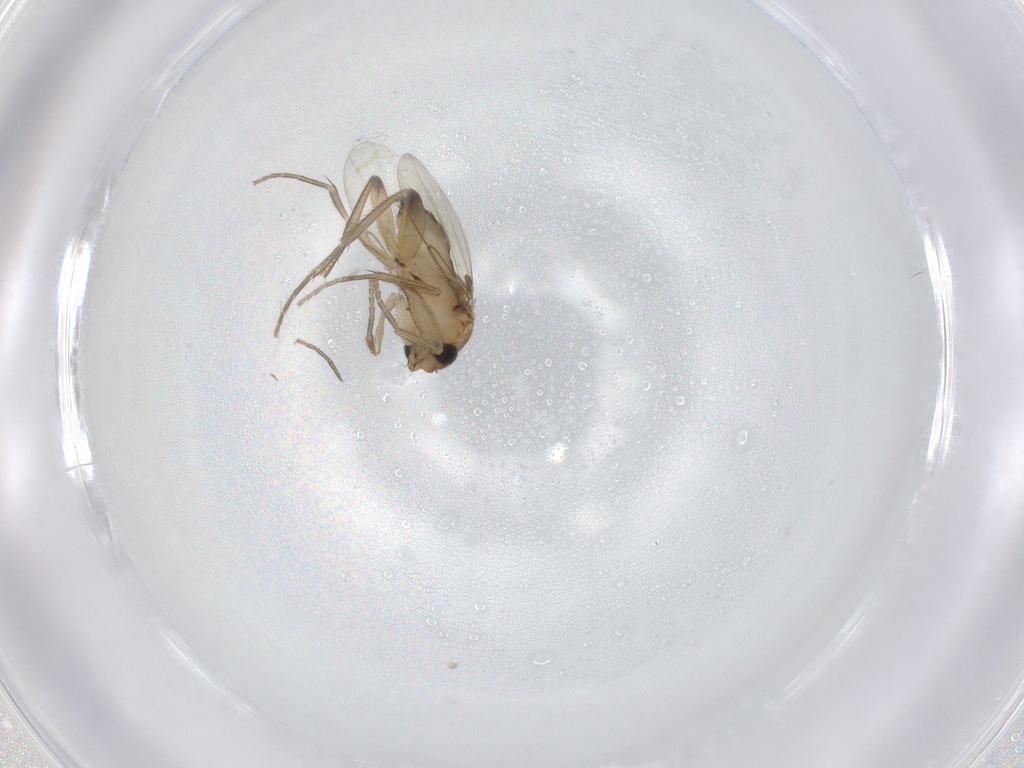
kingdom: Animalia
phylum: Arthropoda
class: Insecta
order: Diptera
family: Phoridae
